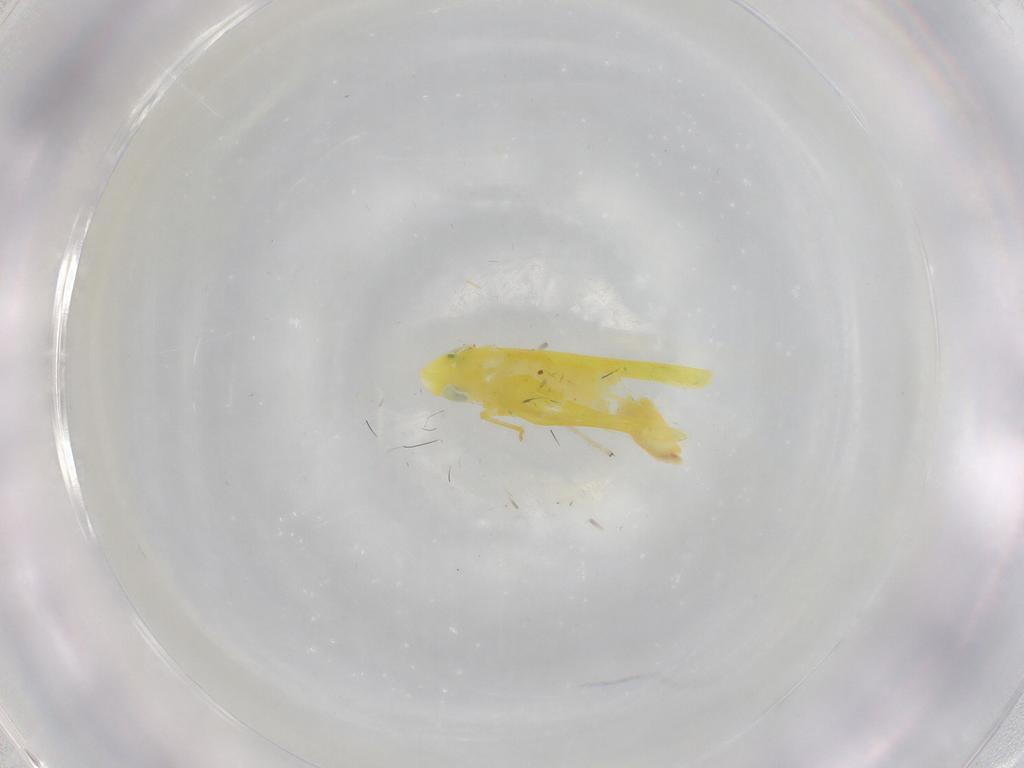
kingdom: Animalia
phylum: Arthropoda
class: Insecta
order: Hemiptera
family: Cicadellidae
